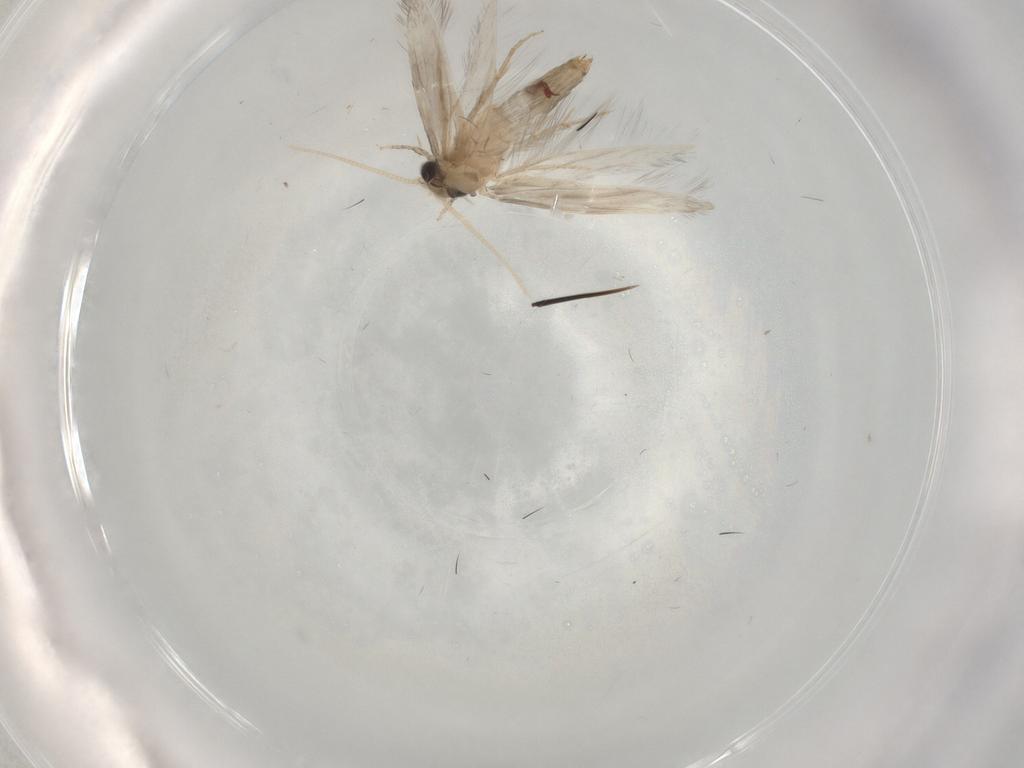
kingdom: Animalia
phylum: Arthropoda
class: Insecta
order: Trichoptera
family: Hydroptilidae
